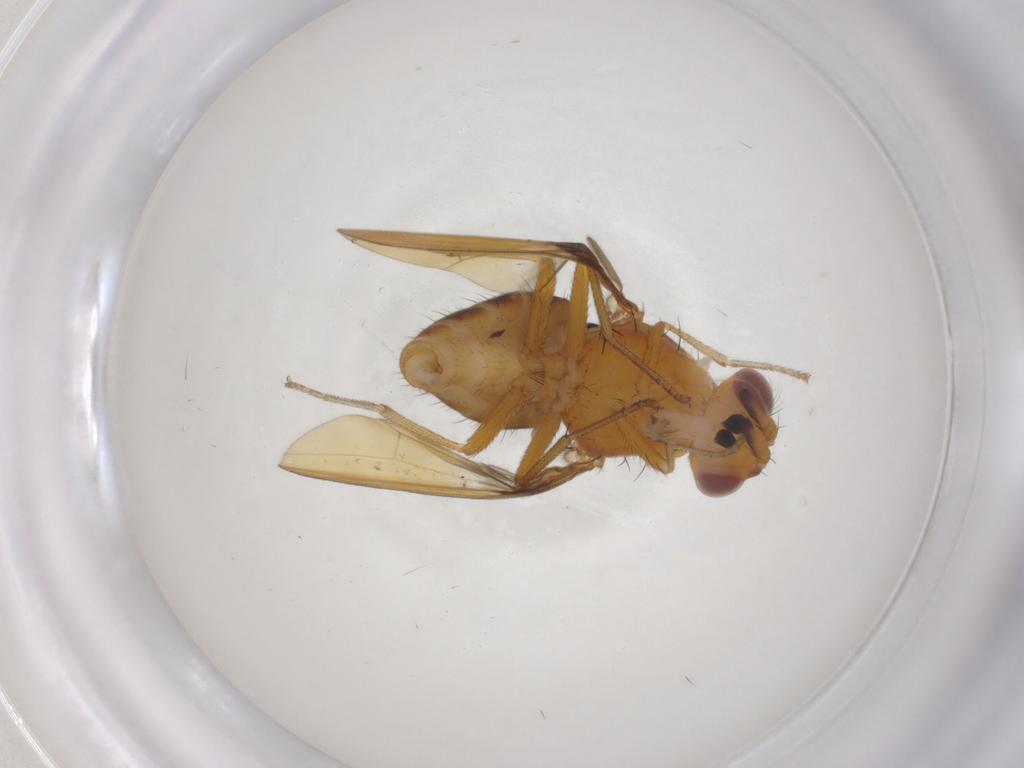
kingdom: Animalia
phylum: Arthropoda
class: Insecta
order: Diptera
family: Lauxaniidae
